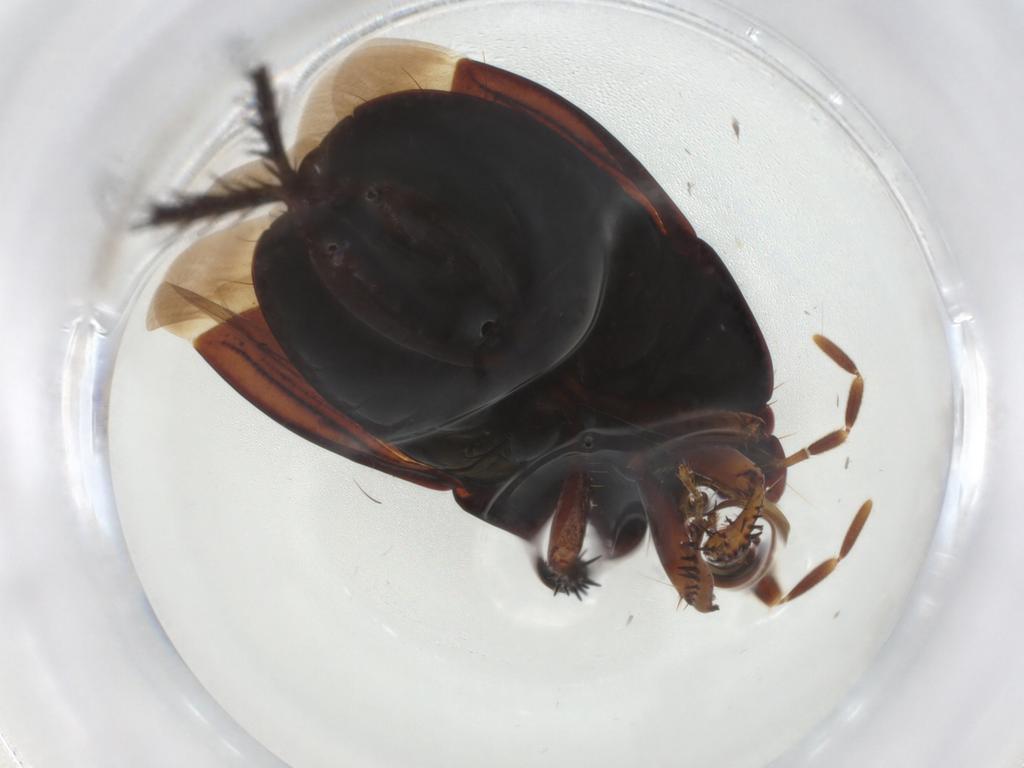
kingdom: Animalia
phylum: Arthropoda
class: Insecta
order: Hemiptera
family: Cydnidae
